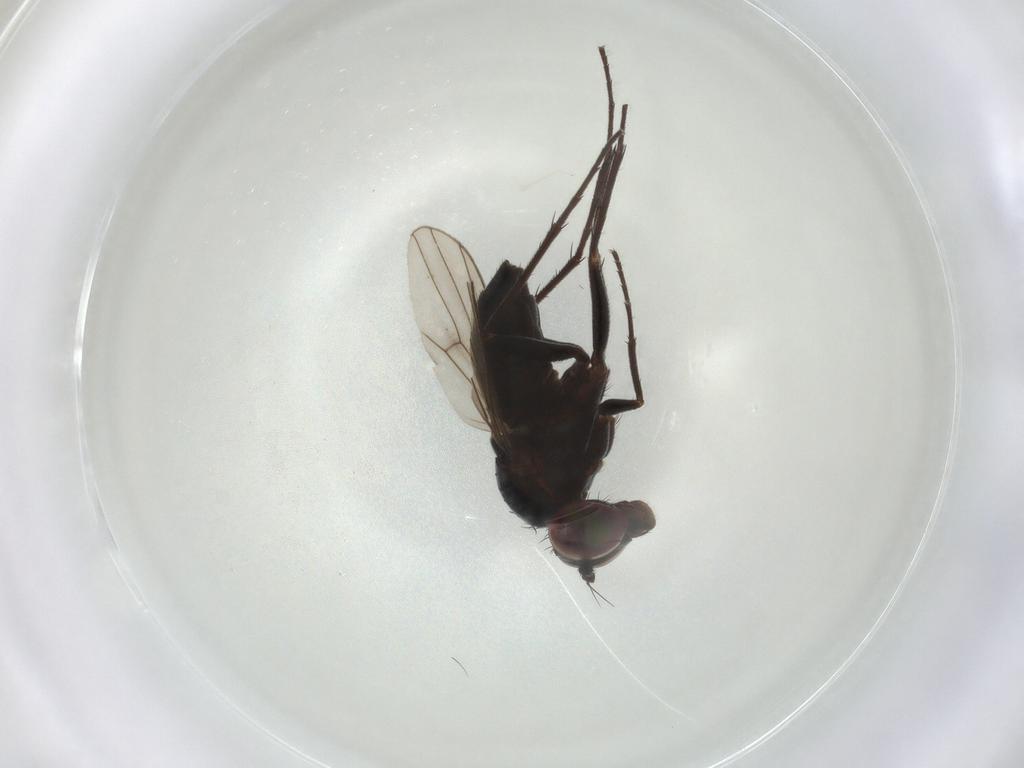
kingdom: Animalia
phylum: Arthropoda
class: Insecta
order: Diptera
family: Dolichopodidae
